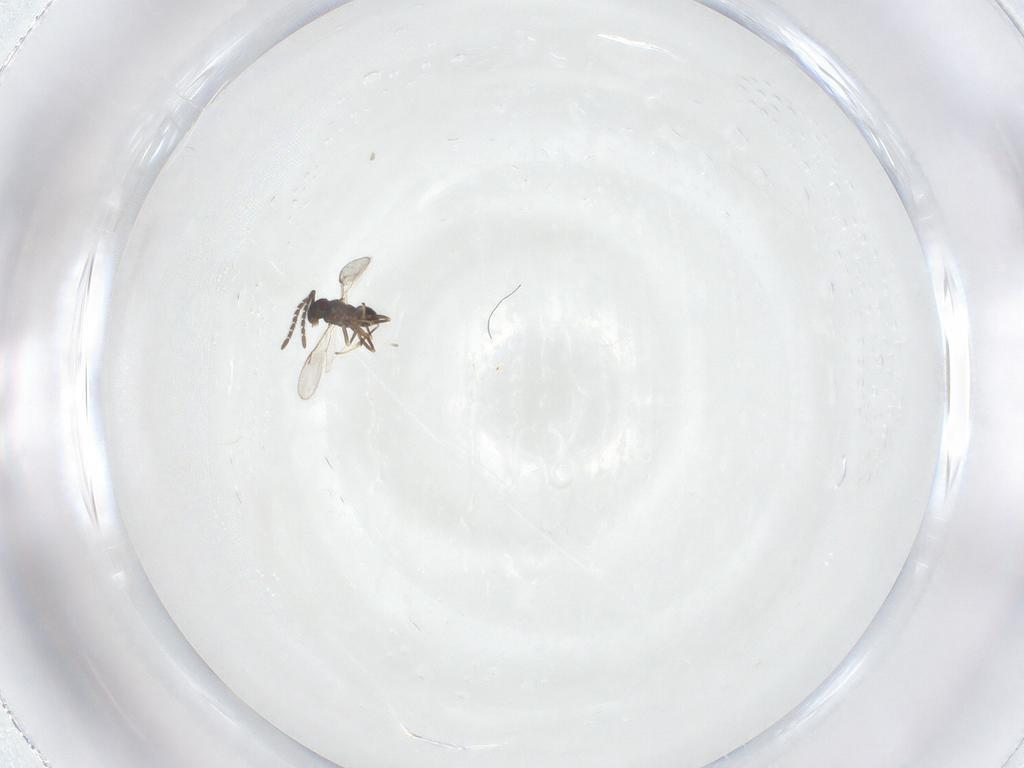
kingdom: Animalia
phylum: Arthropoda
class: Insecta
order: Hymenoptera
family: Encyrtidae
